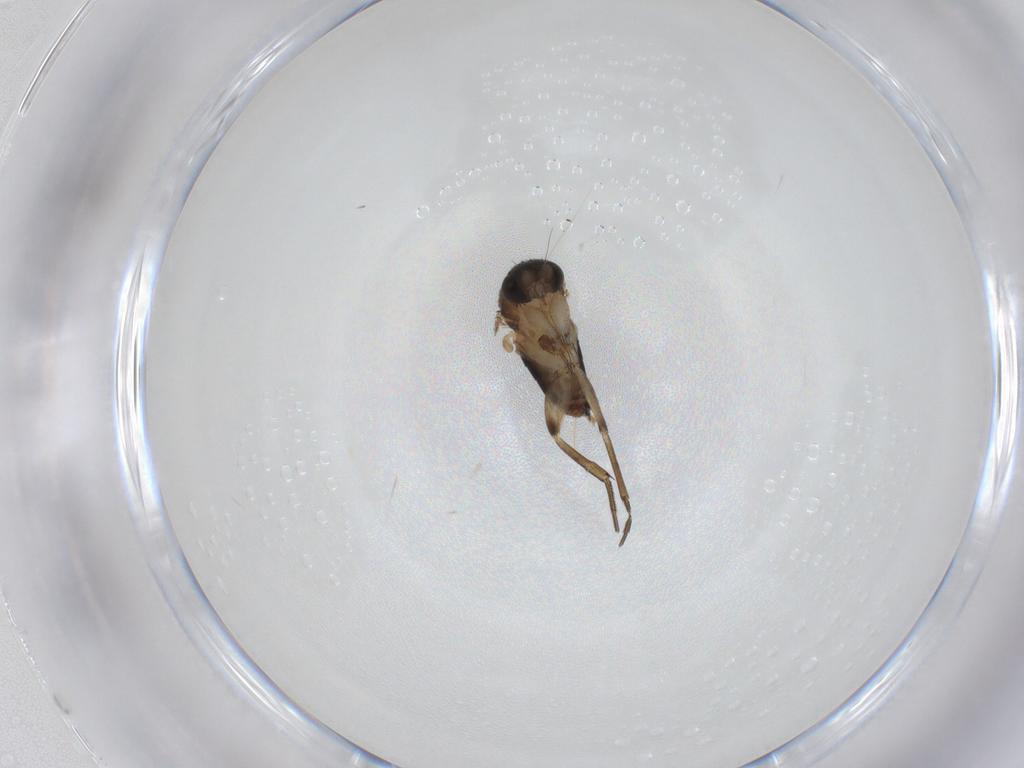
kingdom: Animalia
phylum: Arthropoda
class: Insecta
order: Diptera
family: Phoridae
